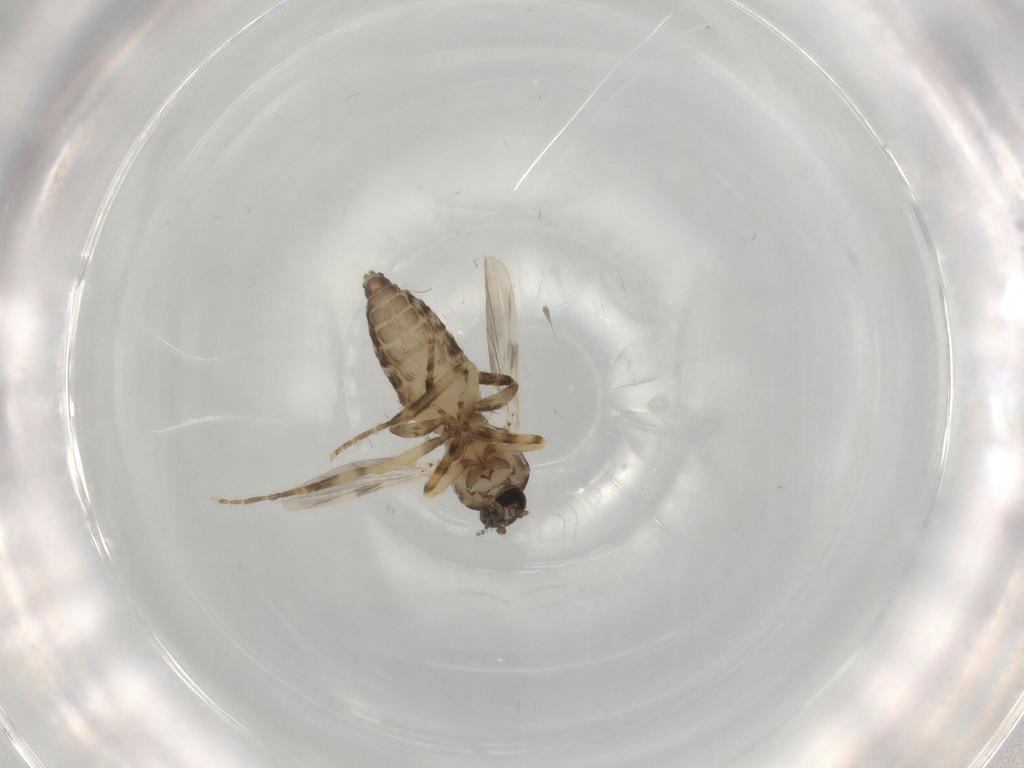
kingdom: Animalia
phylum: Arthropoda
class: Insecta
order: Diptera
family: Ceratopogonidae
